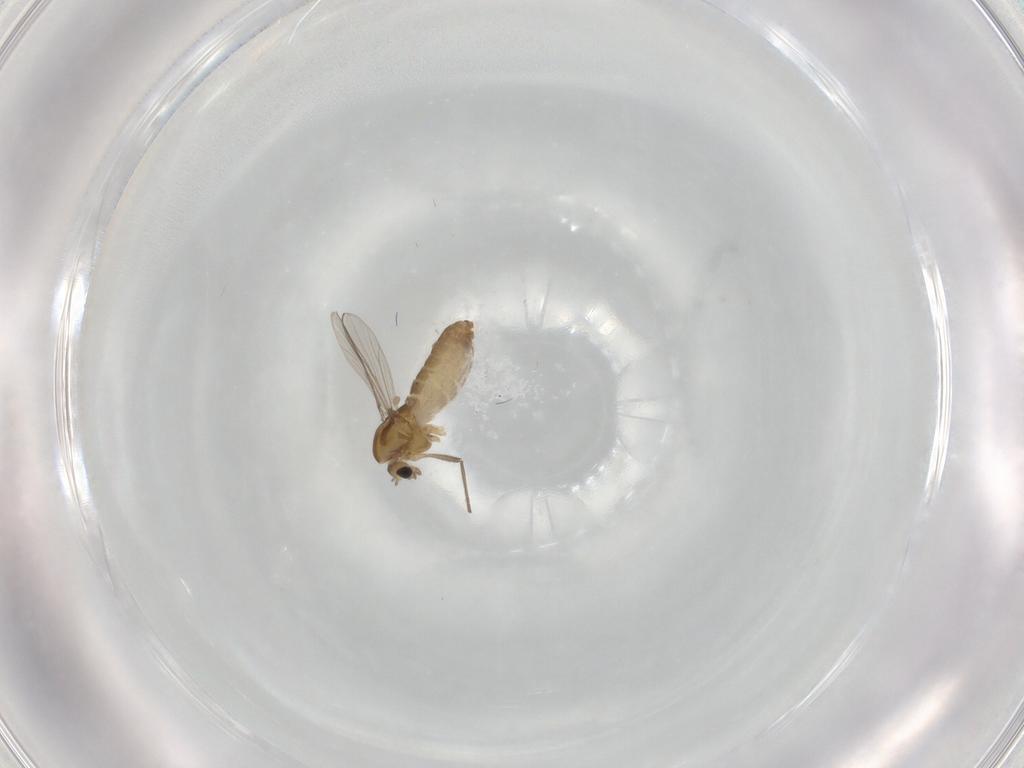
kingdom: Animalia
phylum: Arthropoda
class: Insecta
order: Diptera
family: Chironomidae
